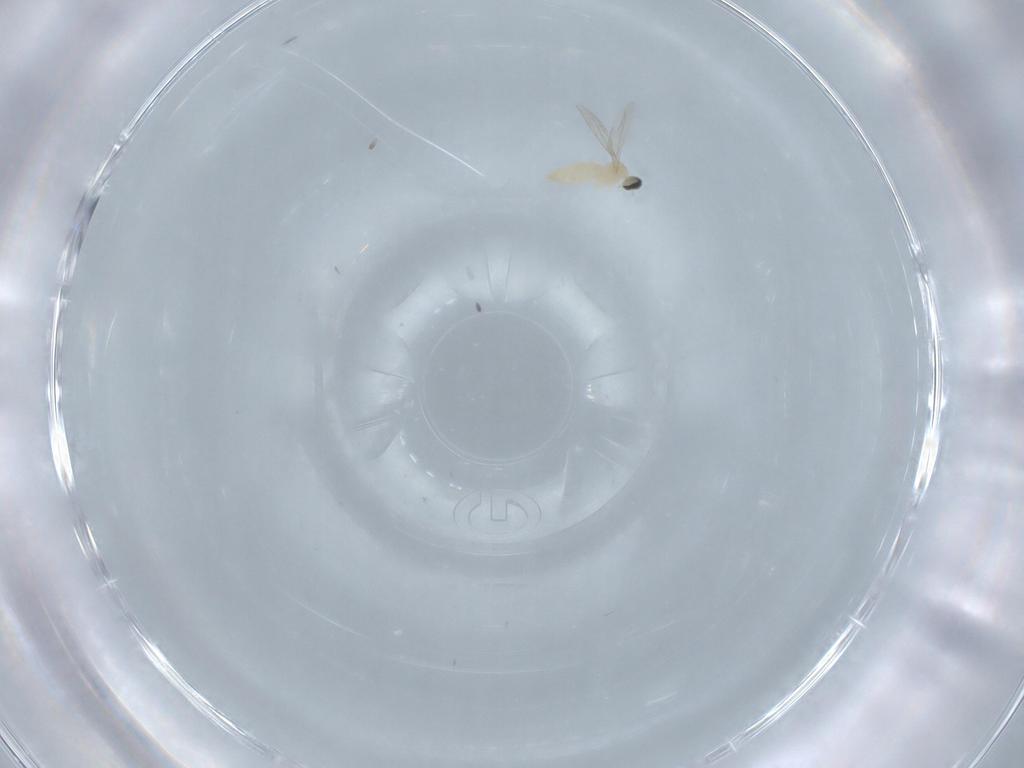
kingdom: Animalia
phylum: Arthropoda
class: Insecta
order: Diptera
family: Cecidomyiidae
